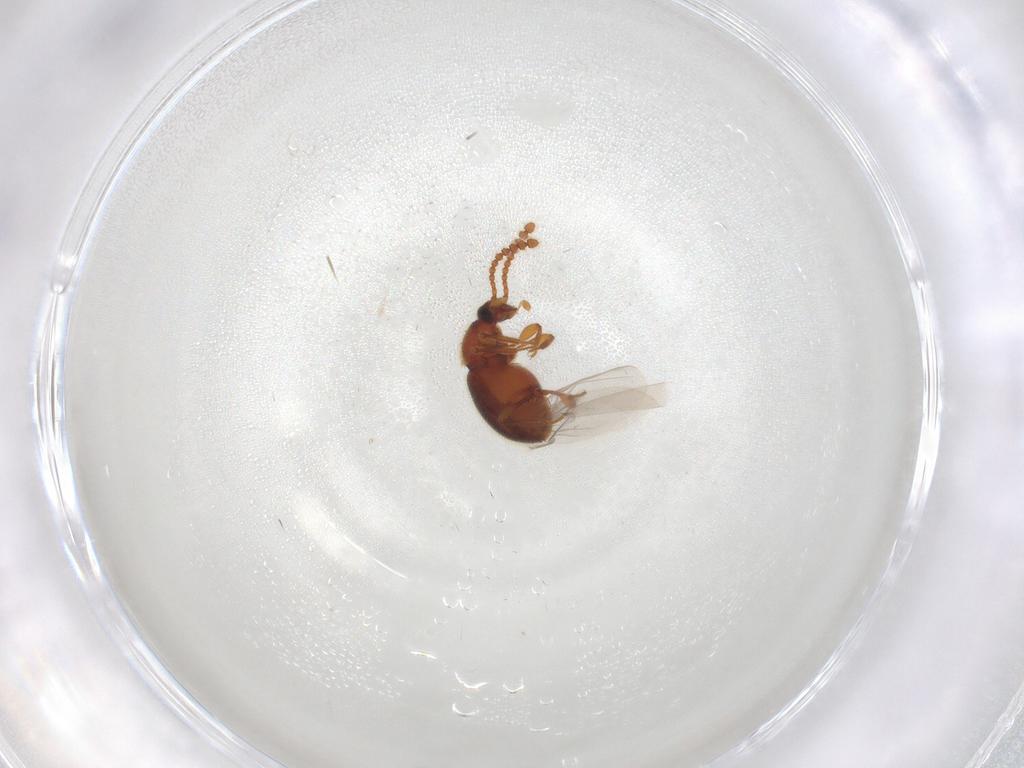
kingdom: Animalia
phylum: Arthropoda
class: Insecta
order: Coleoptera
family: Staphylinidae
